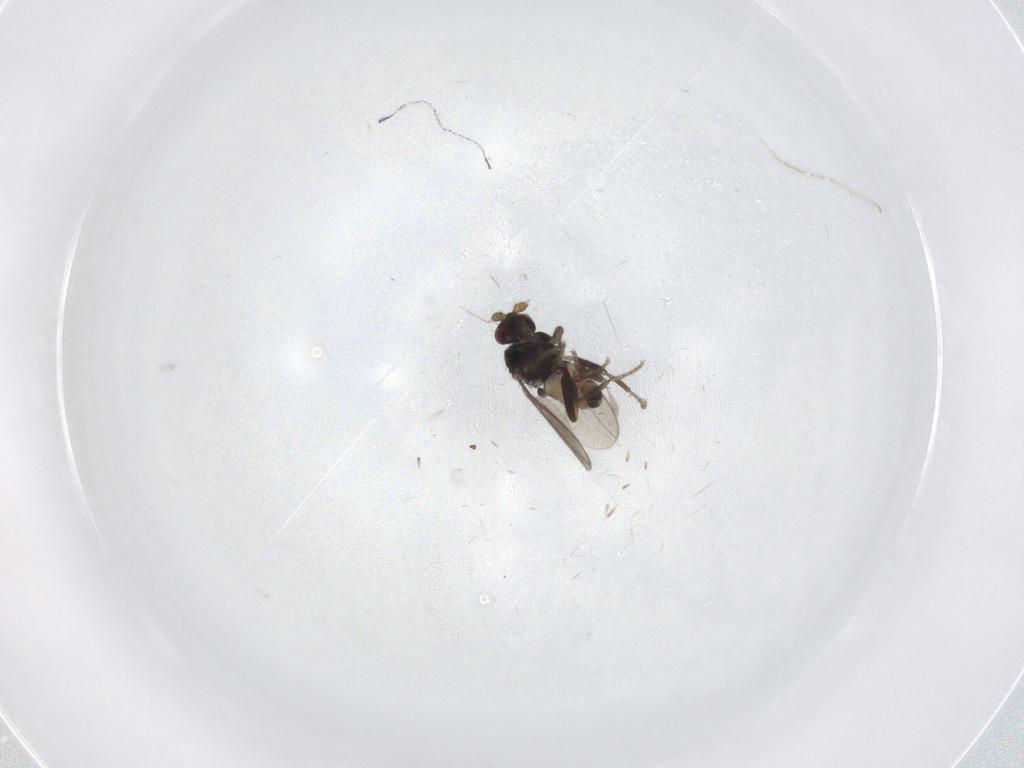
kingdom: Animalia
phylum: Arthropoda
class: Insecta
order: Diptera
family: Sphaeroceridae
